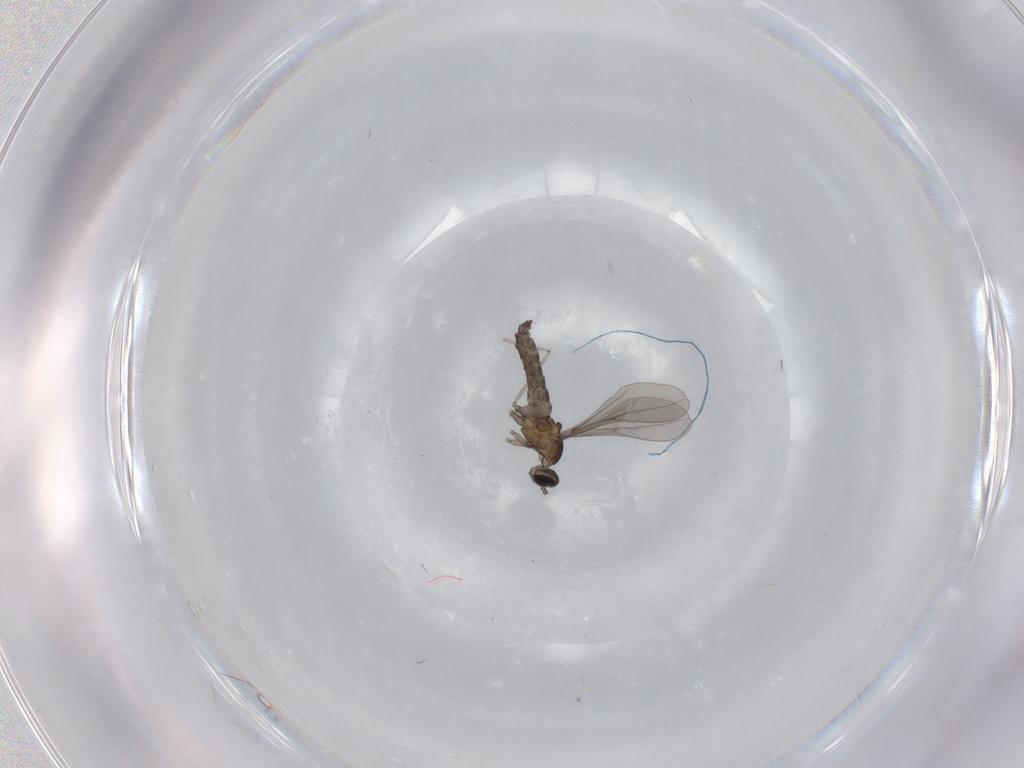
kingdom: Animalia
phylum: Arthropoda
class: Insecta
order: Diptera
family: Cecidomyiidae
